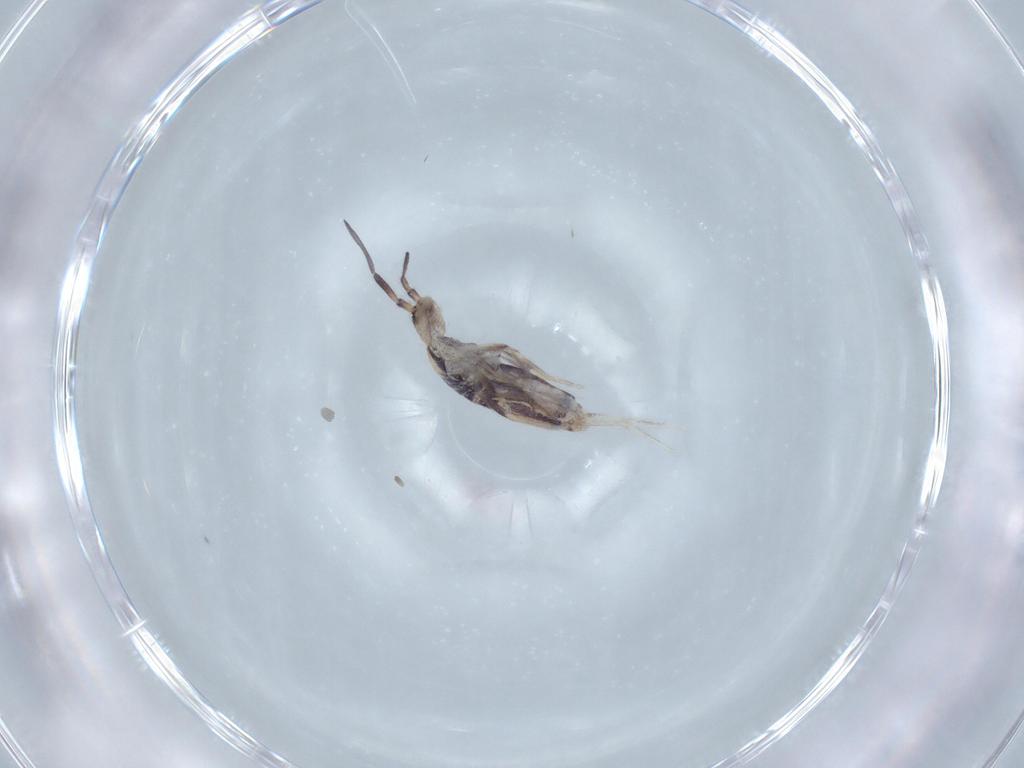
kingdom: Animalia
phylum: Arthropoda
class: Collembola
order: Poduromorpha
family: Hypogastruridae
